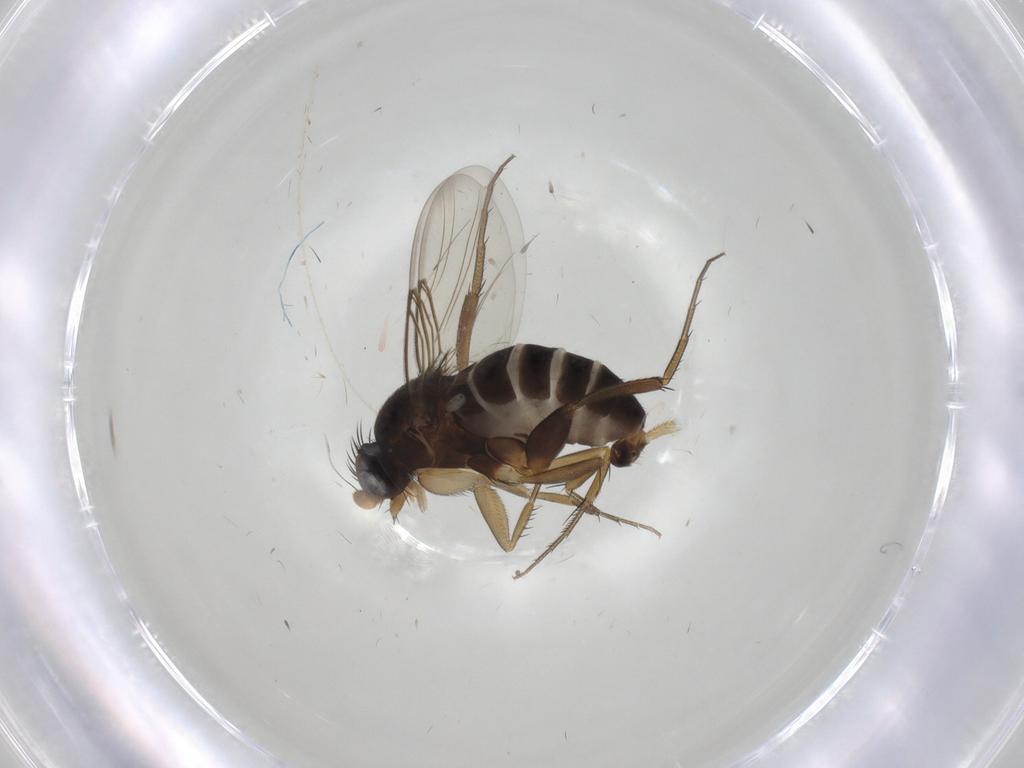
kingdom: Animalia
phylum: Arthropoda
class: Insecta
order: Diptera
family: Phoridae
